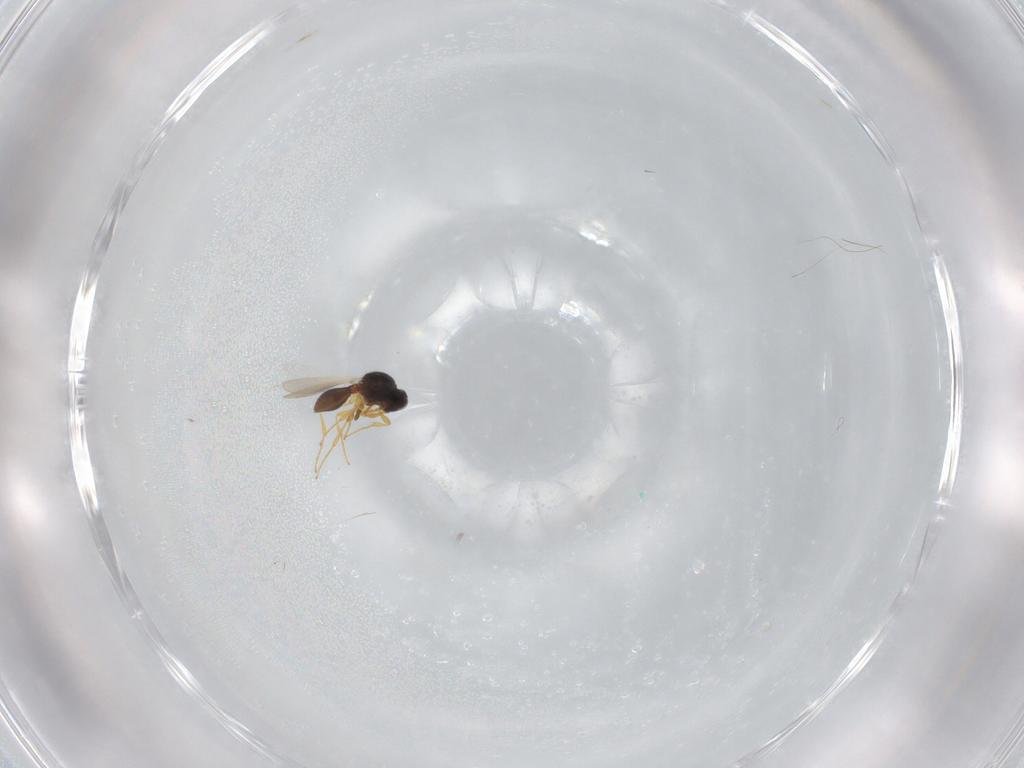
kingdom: Animalia
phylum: Arthropoda
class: Insecta
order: Hymenoptera
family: Platygastridae
